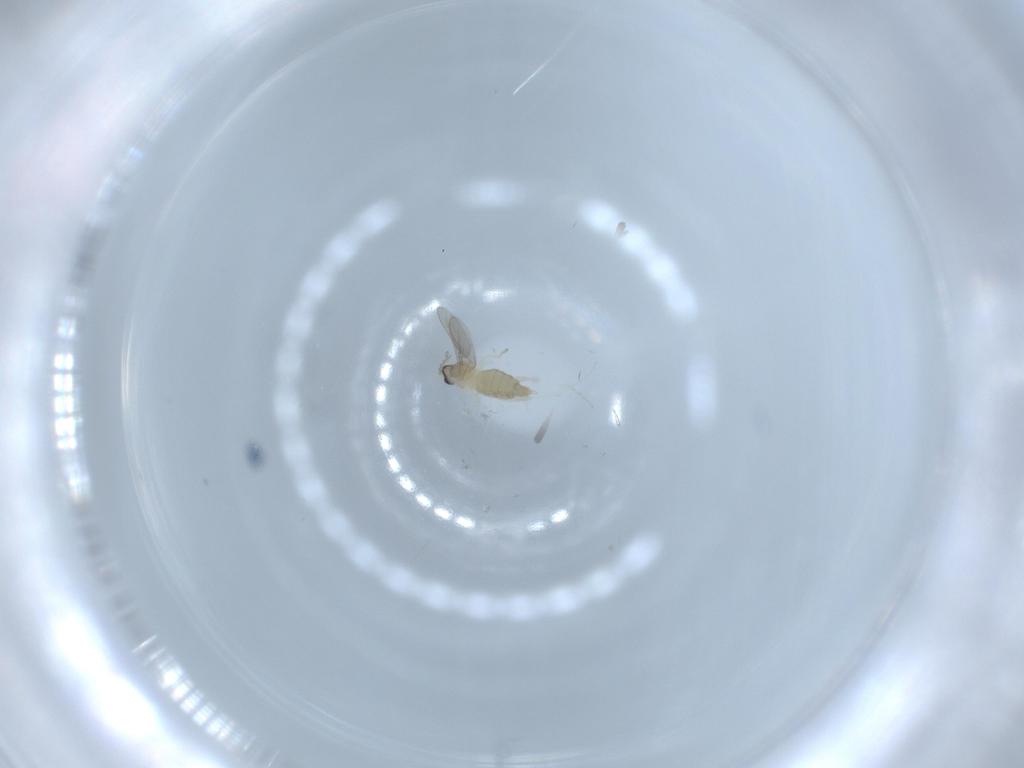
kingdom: Animalia
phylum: Arthropoda
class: Insecta
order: Diptera
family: Cecidomyiidae
